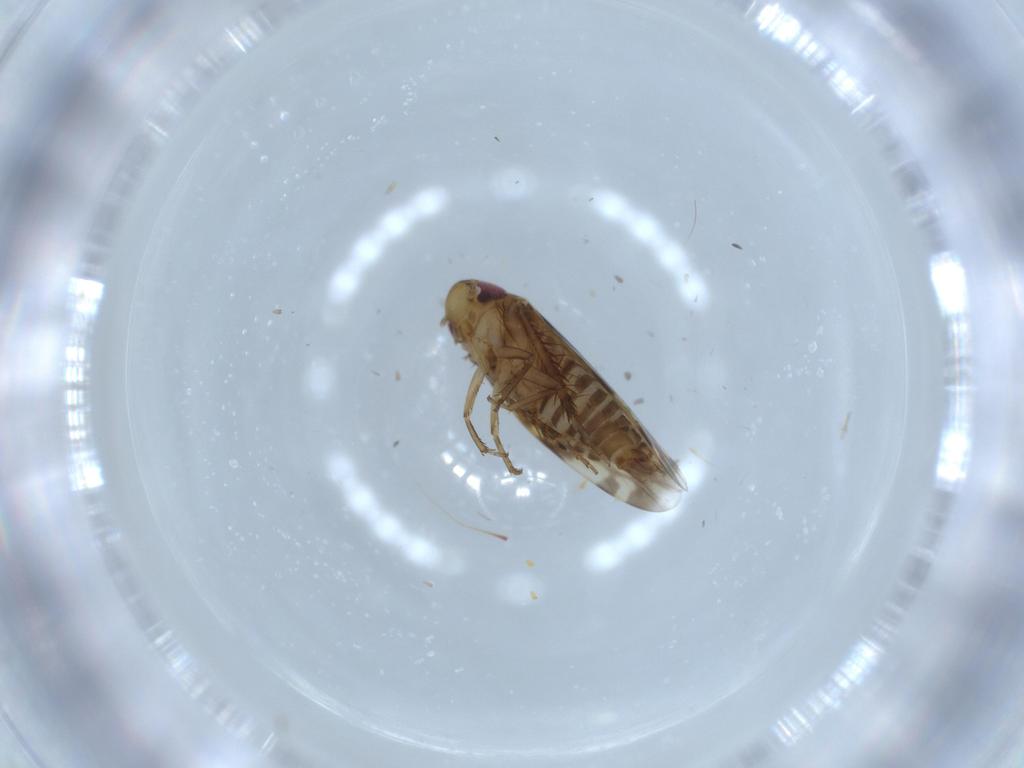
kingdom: Animalia
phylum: Arthropoda
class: Insecta
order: Hemiptera
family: Cicadellidae
